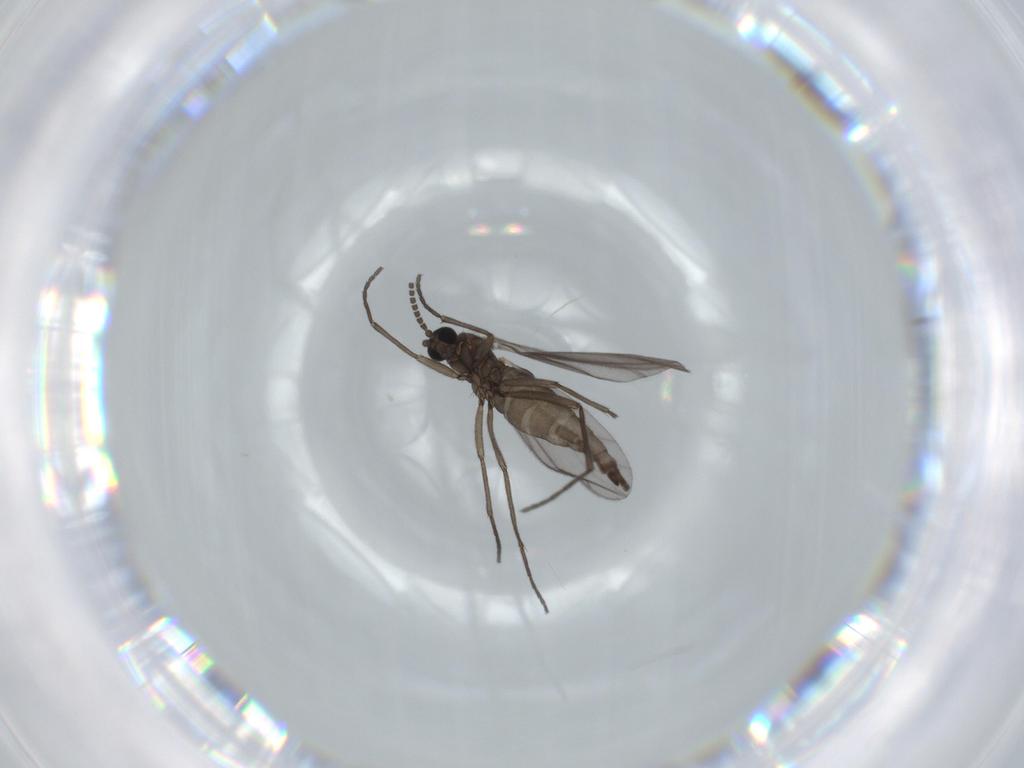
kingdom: Animalia
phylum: Arthropoda
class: Insecta
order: Diptera
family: Sciaridae
